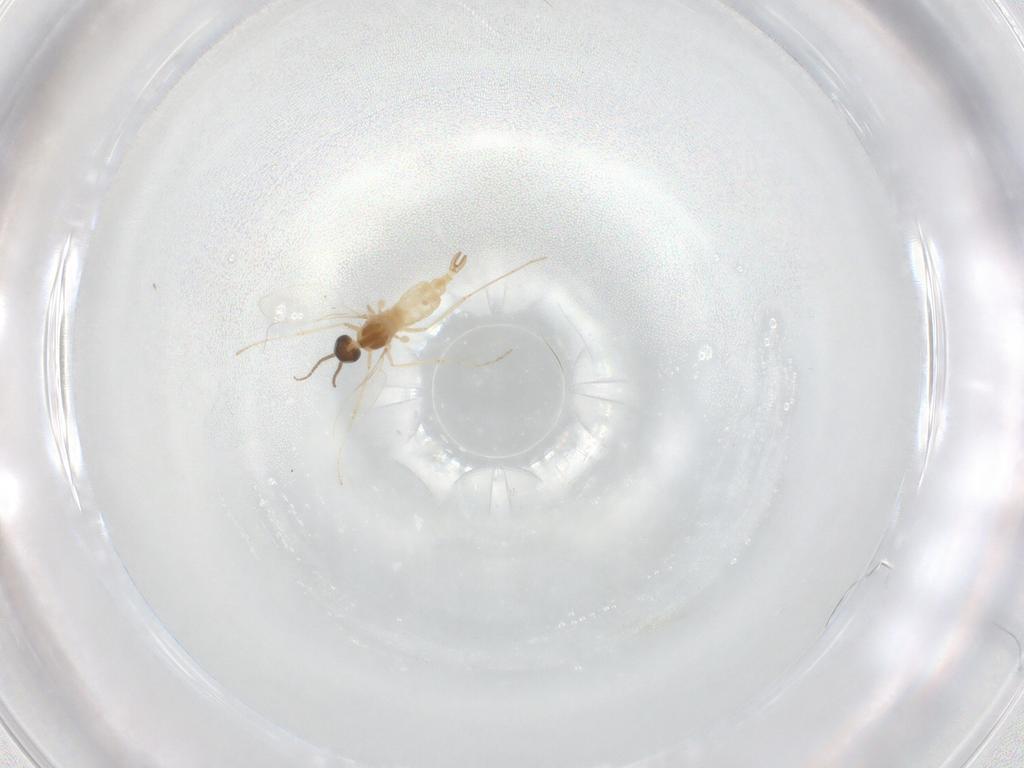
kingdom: Animalia
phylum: Arthropoda
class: Insecta
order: Diptera
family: Cecidomyiidae
